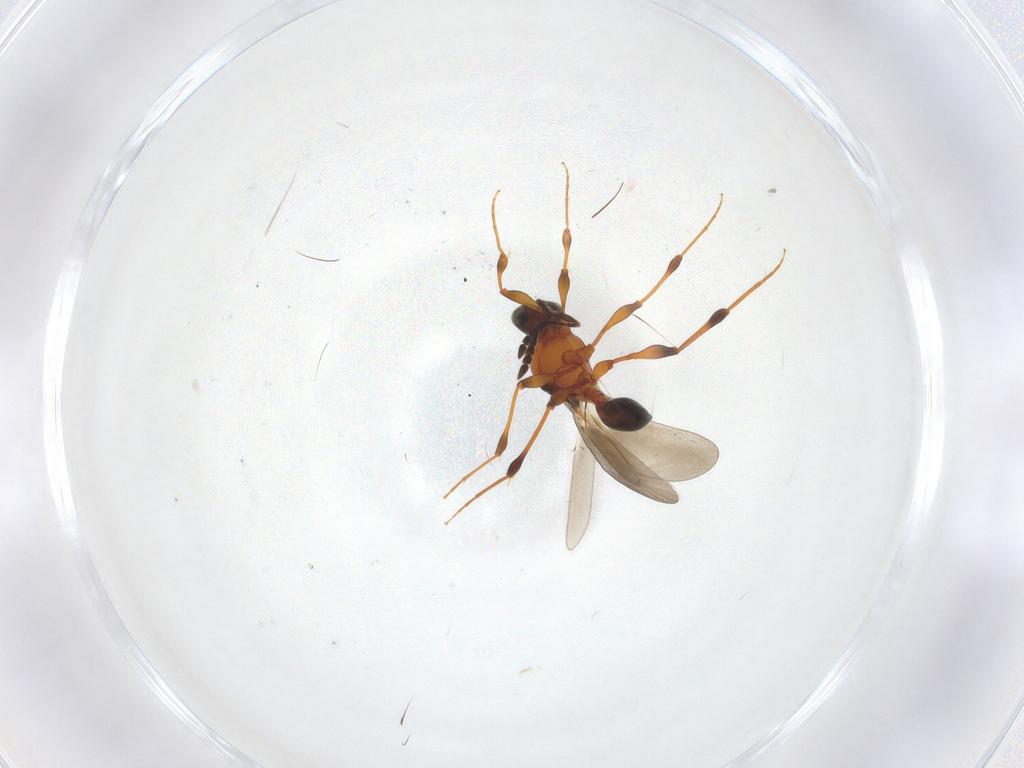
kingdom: Animalia
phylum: Arthropoda
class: Insecta
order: Hymenoptera
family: Platygastridae
